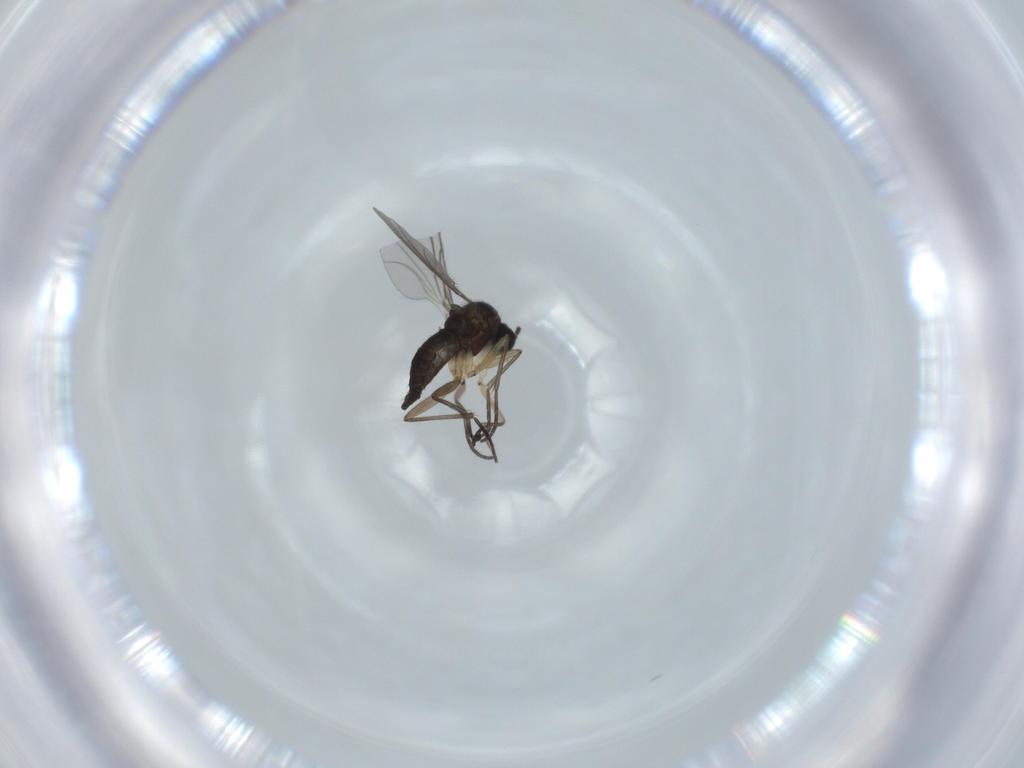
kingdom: Animalia
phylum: Arthropoda
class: Insecta
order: Diptera
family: Sciaridae
